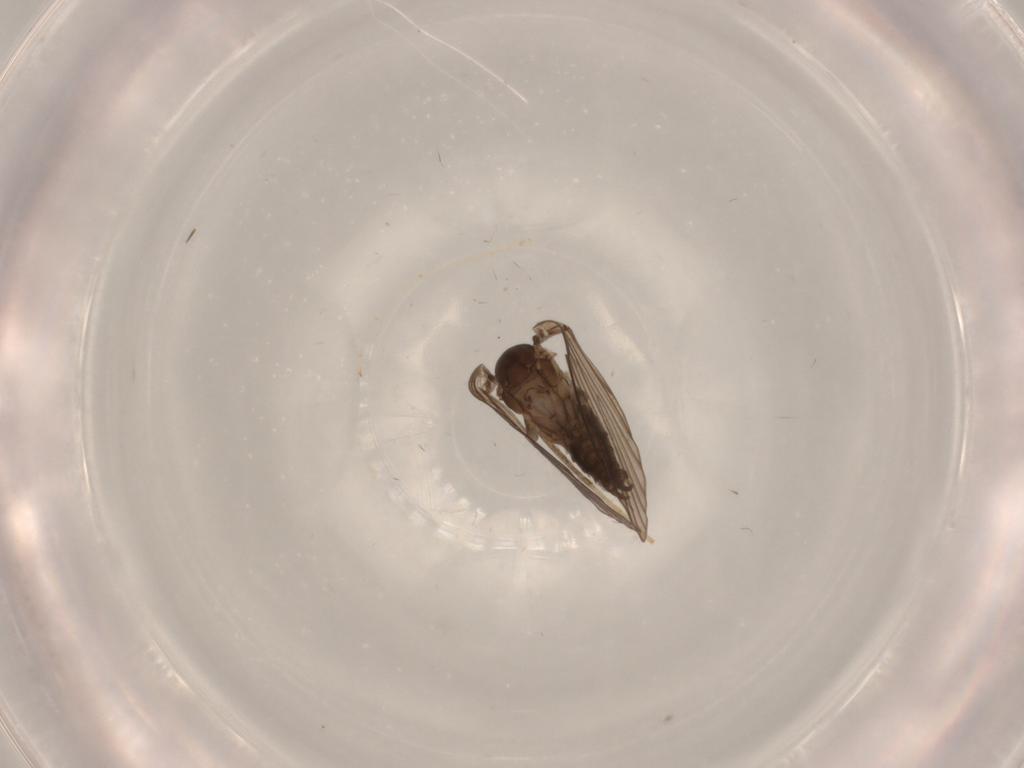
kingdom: Animalia
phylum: Arthropoda
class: Insecta
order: Diptera
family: Psychodidae
